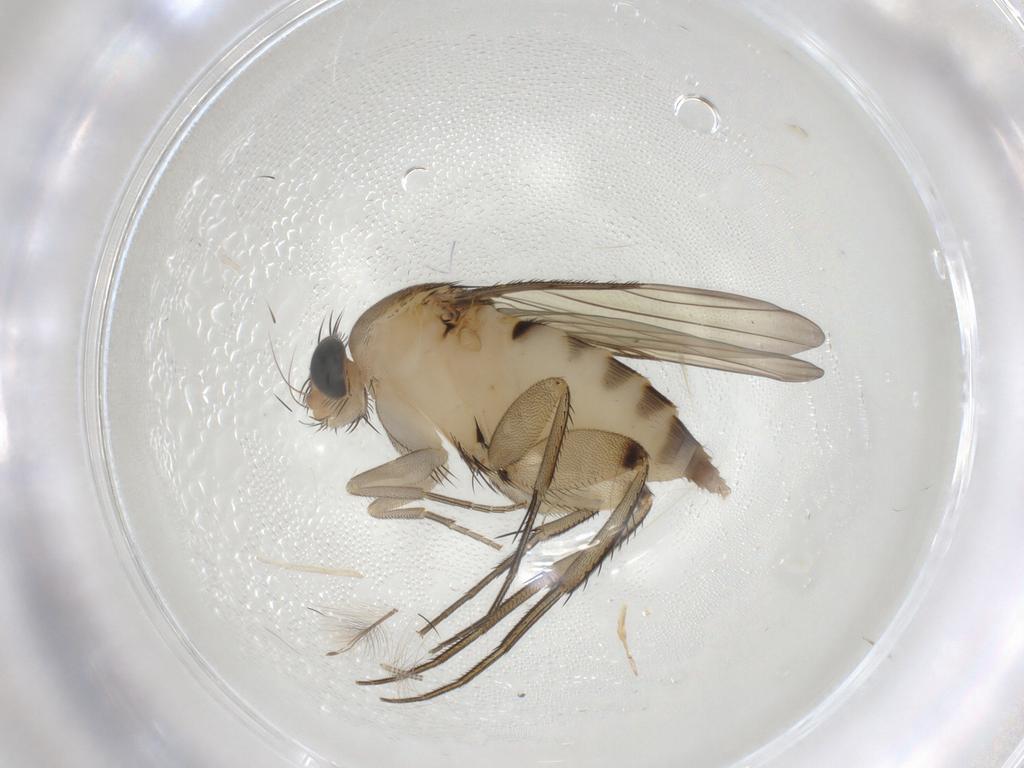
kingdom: Animalia
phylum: Arthropoda
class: Insecta
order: Diptera
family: Phoridae
